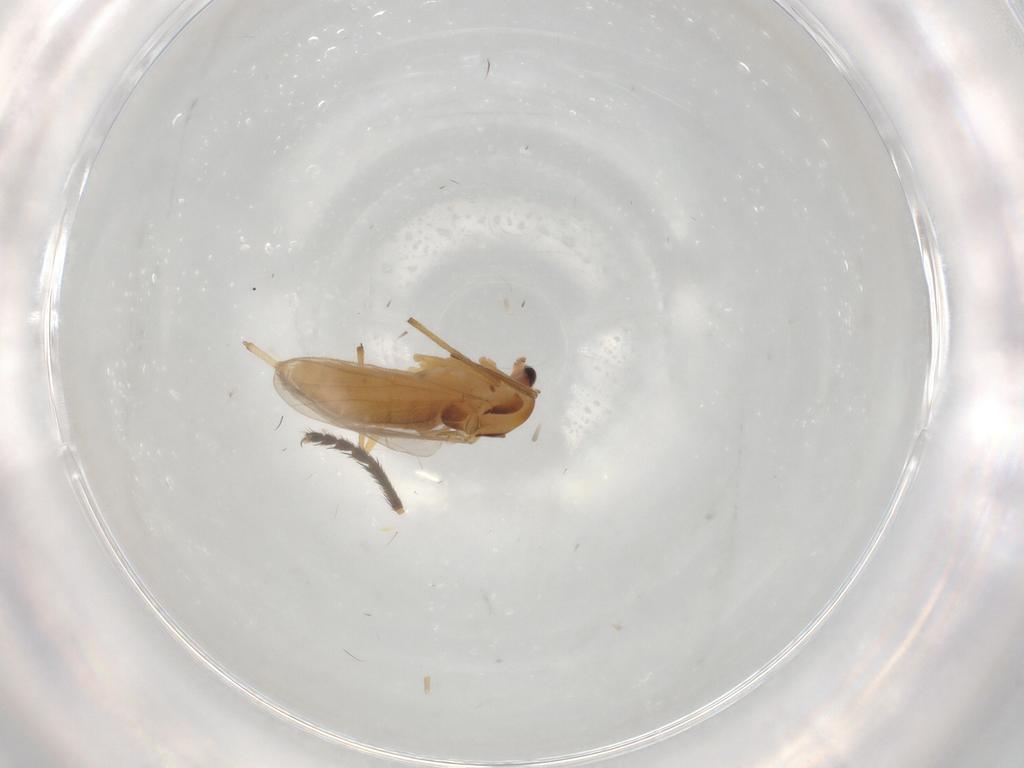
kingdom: Animalia
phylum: Arthropoda
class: Insecta
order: Diptera
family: Chironomidae
